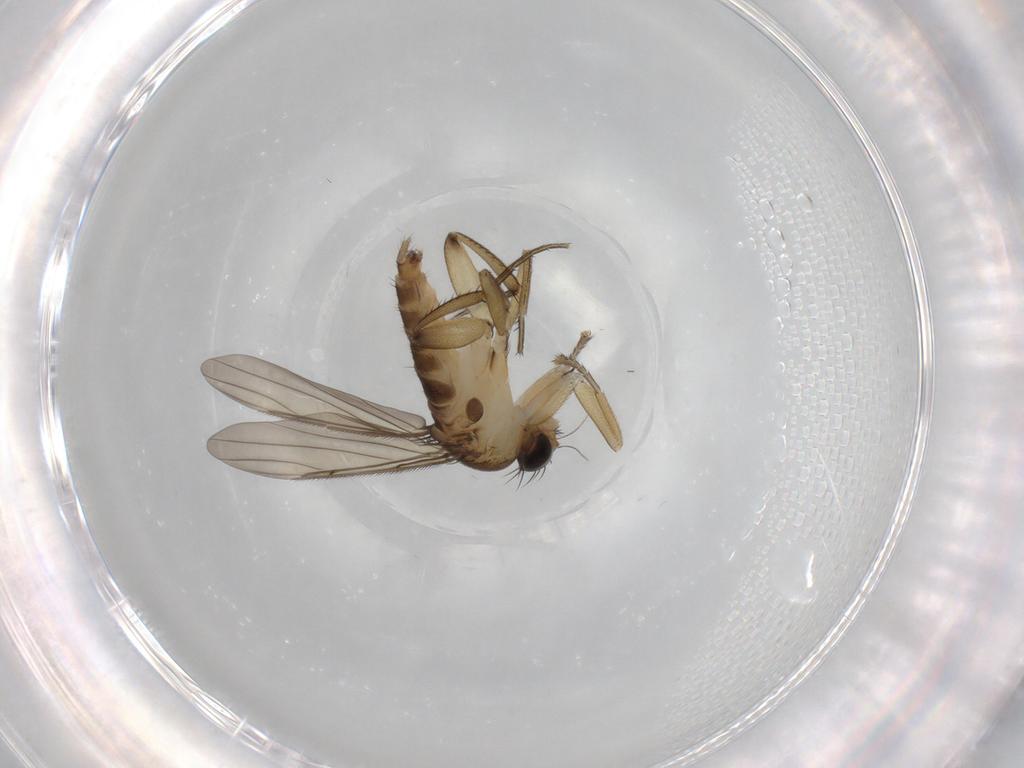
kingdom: Animalia
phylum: Arthropoda
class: Insecta
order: Diptera
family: Phoridae
